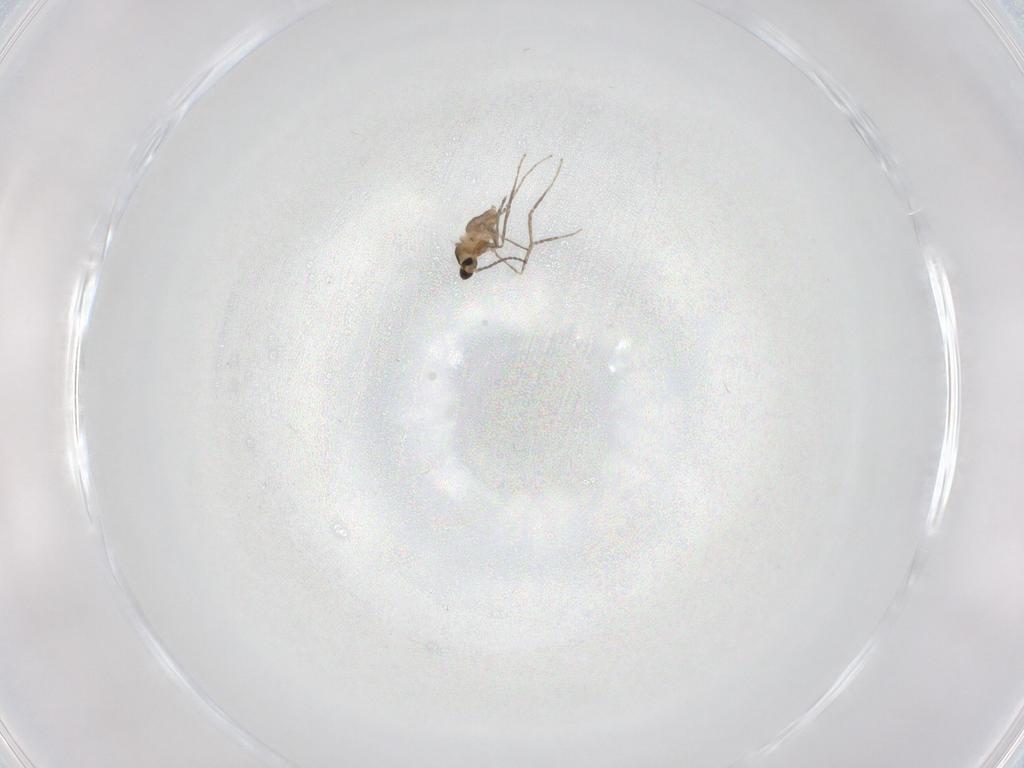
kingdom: Animalia
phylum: Arthropoda
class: Insecta
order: Diptera
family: Cecidomyiidae
